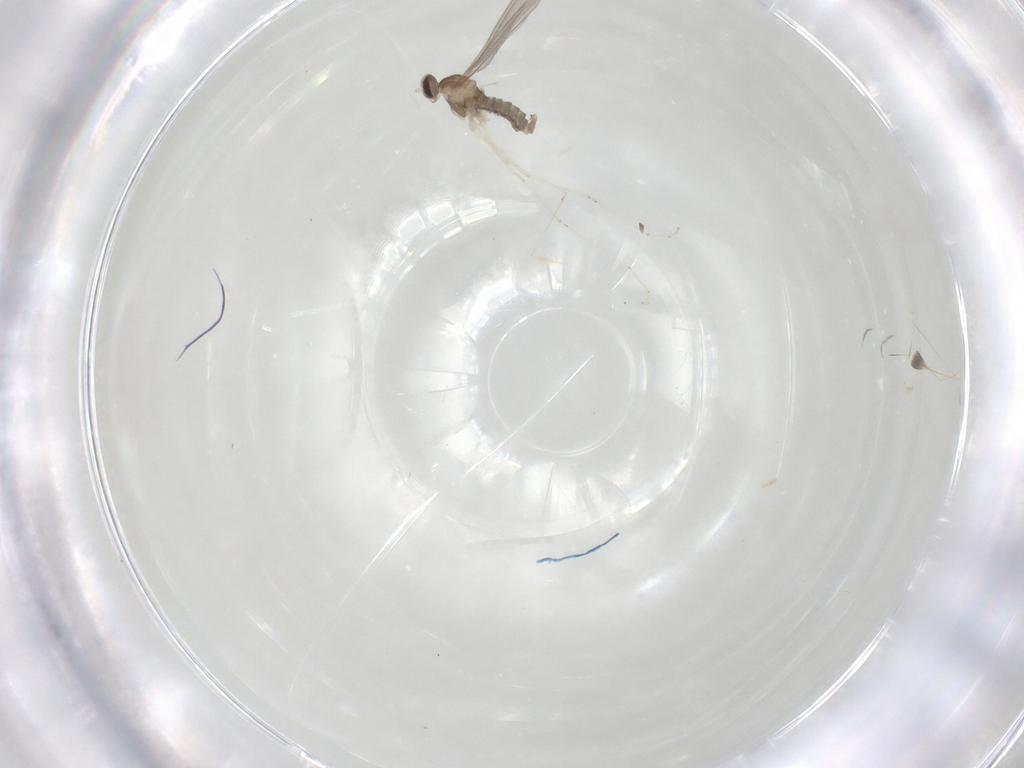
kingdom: Animalia
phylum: Arthropoda
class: Insecta
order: Diptera
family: Cecidomyiidae
